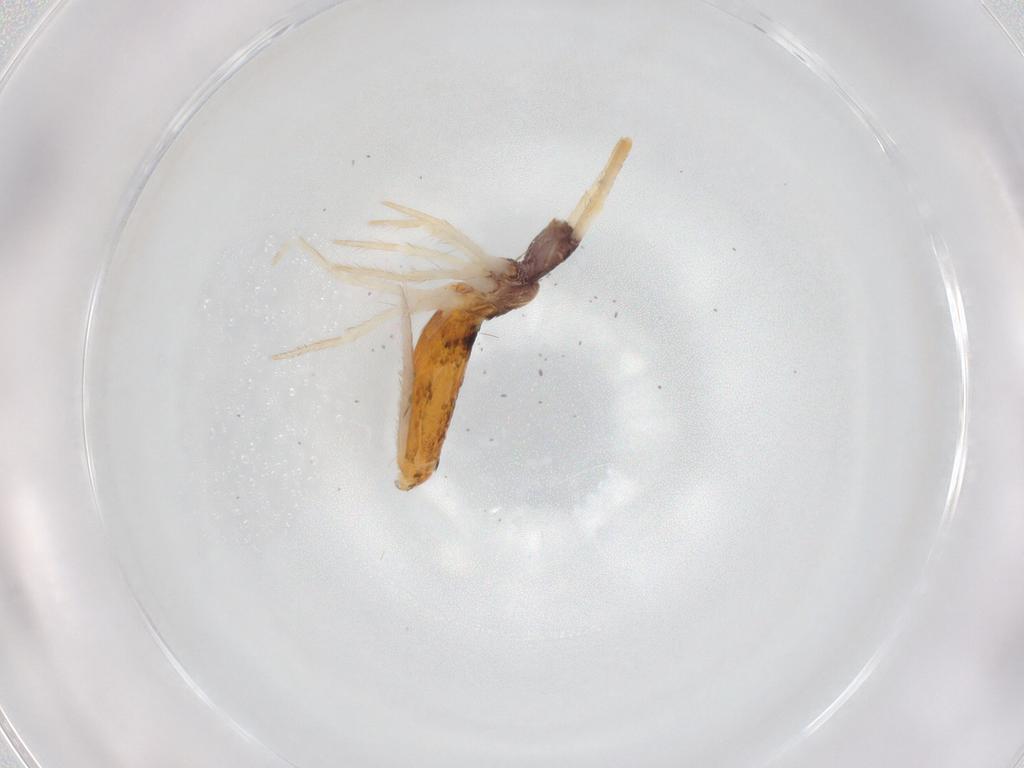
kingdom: Animalia
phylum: Arthropoda
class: Collembola
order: Entomobryomorpha
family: Entomobryidae
